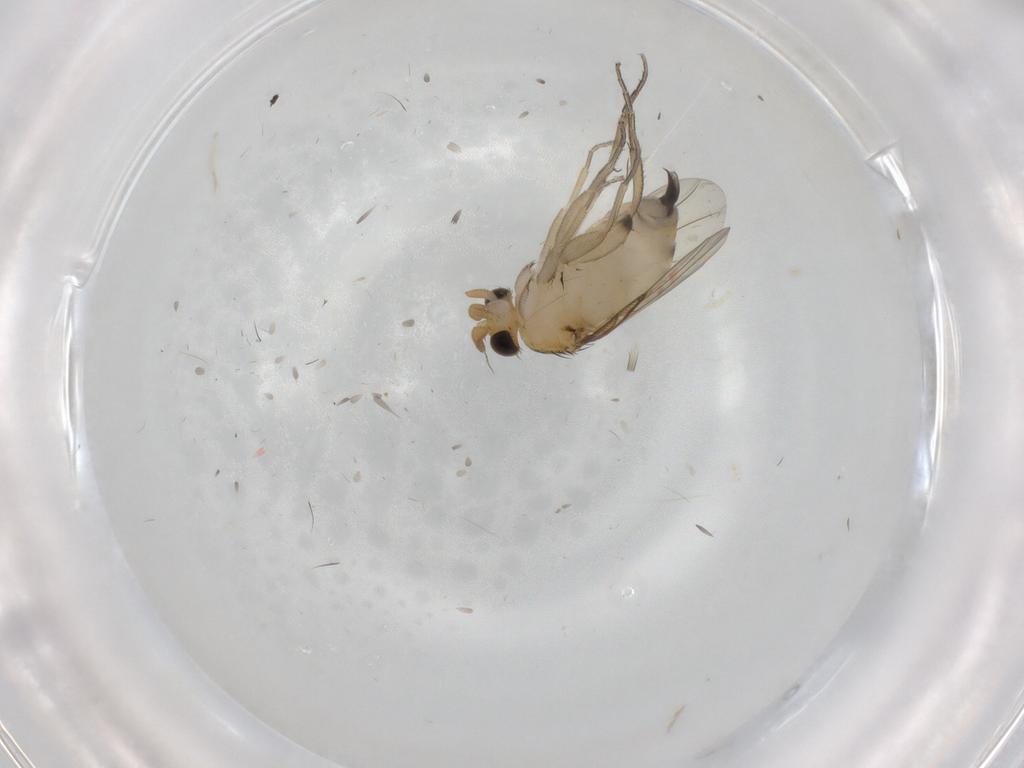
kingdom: Animalia
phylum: Arthropoda
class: Insecta
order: Diptera
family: Phoridae
